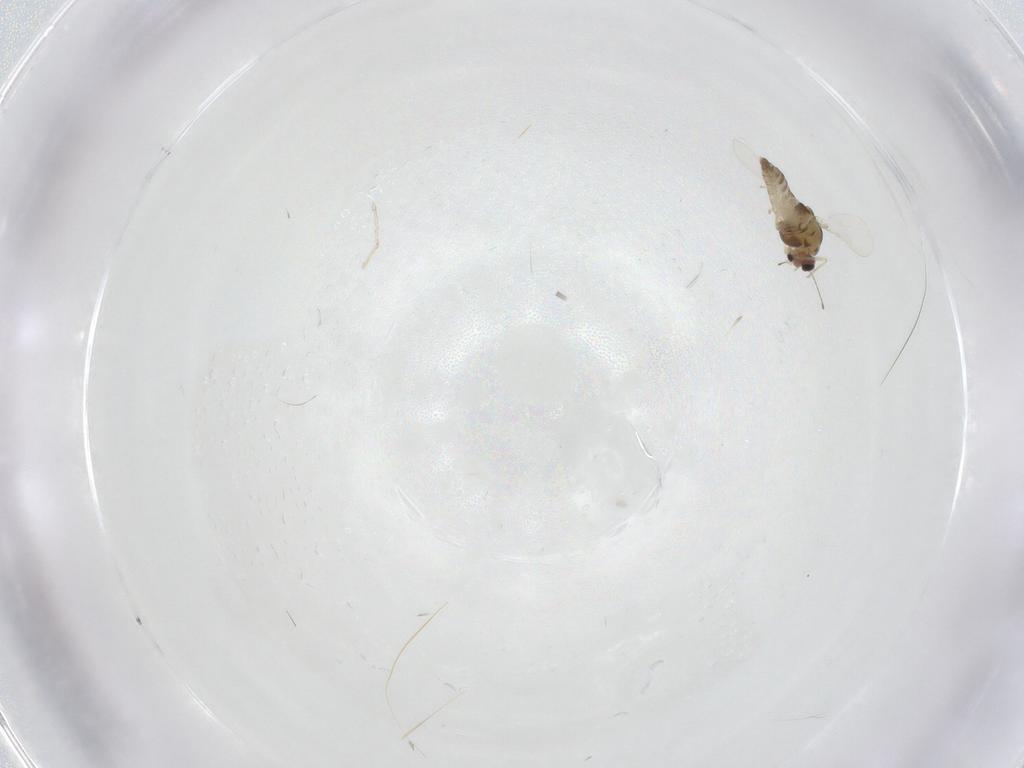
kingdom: Animalia
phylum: Arthropoda
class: Insecta
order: Diptera
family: Chironomidae
